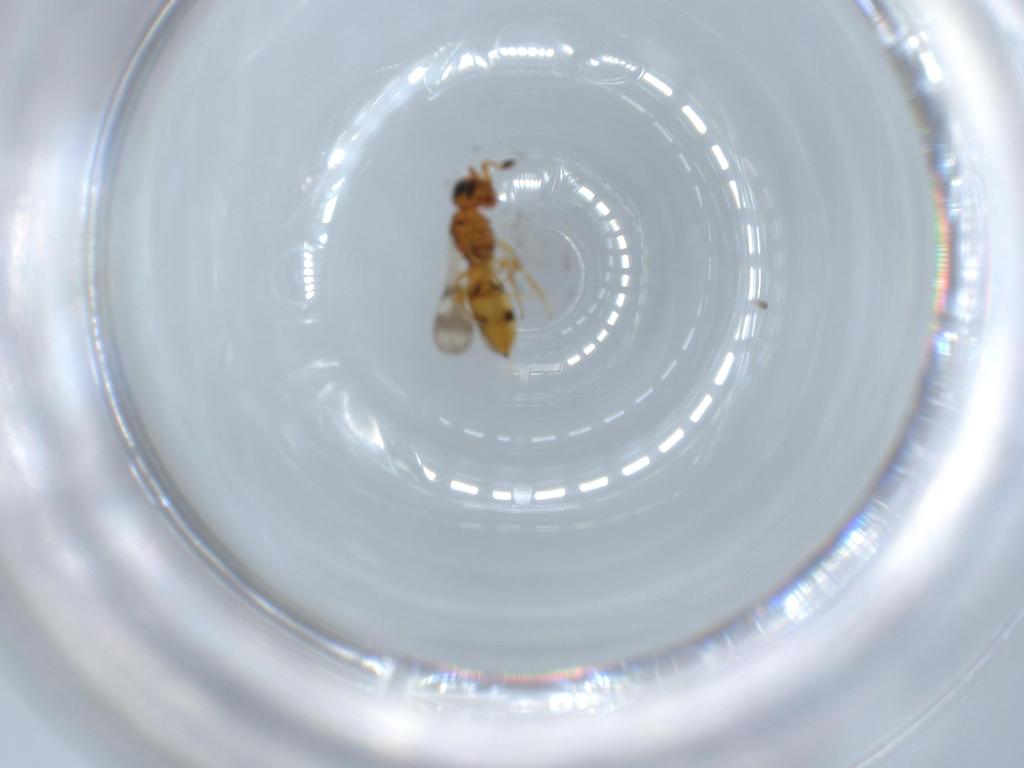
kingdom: Animalia
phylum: Arthropoda
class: Insecta
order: Hymenoptera
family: Scelionidae
